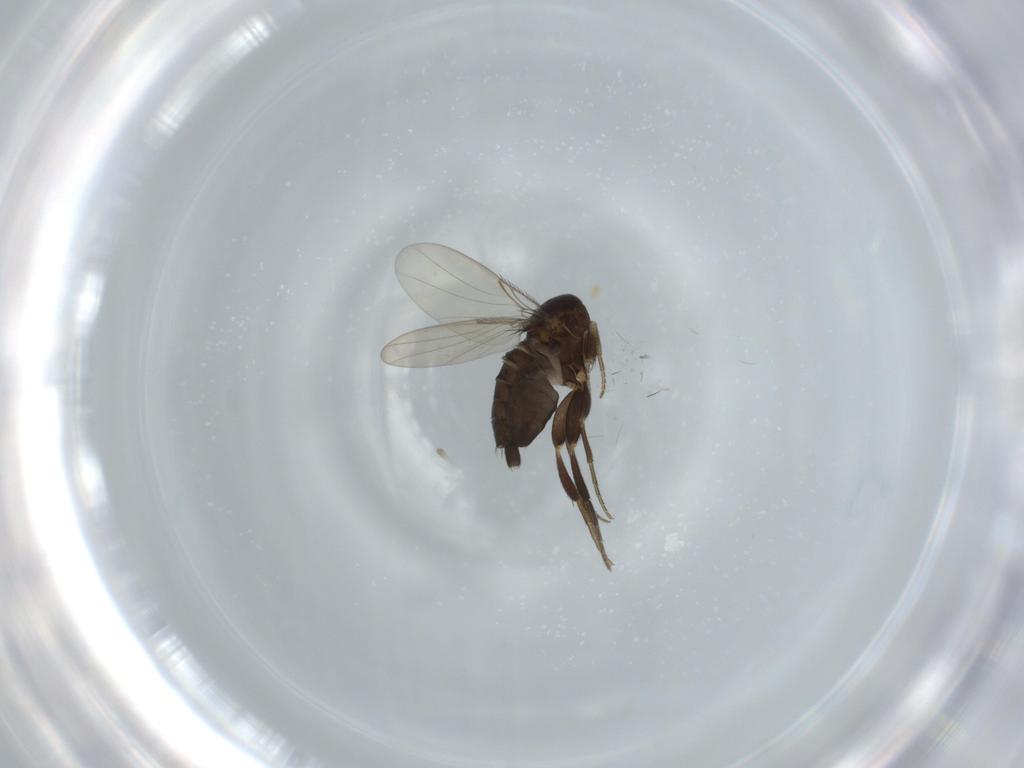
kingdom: Animalia
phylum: Arthropoda
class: Insecta
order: Diptera
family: Phoridae
